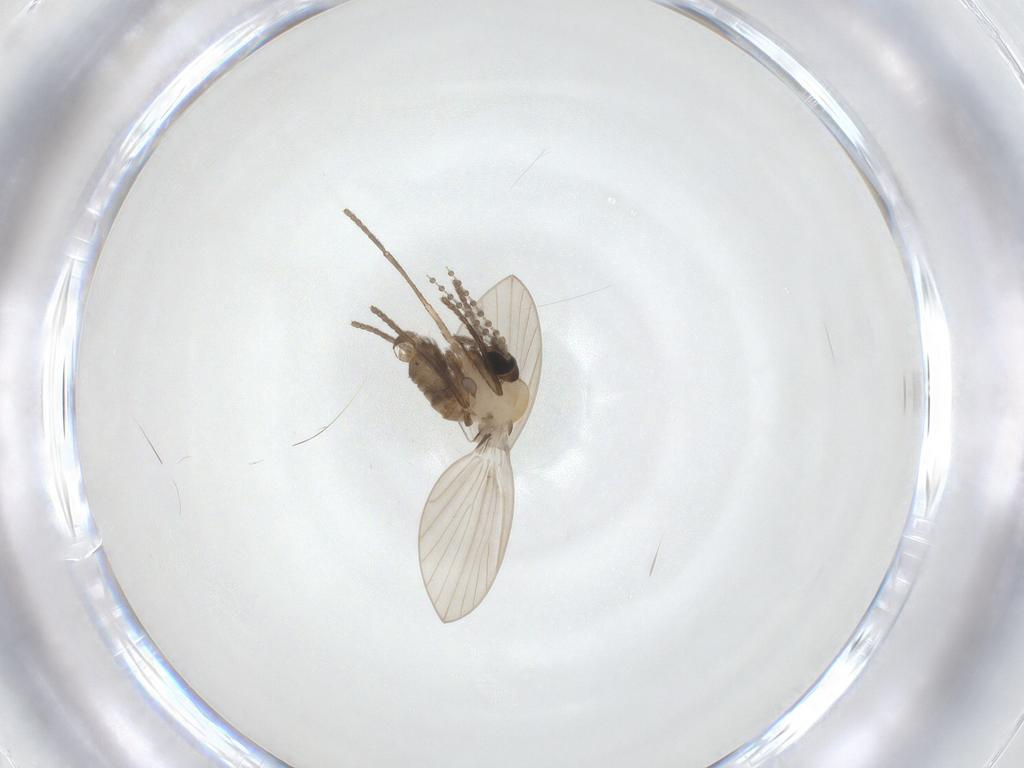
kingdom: Animalia
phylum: Arthropoda
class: Insecta
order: Diptera
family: Psychodidae
